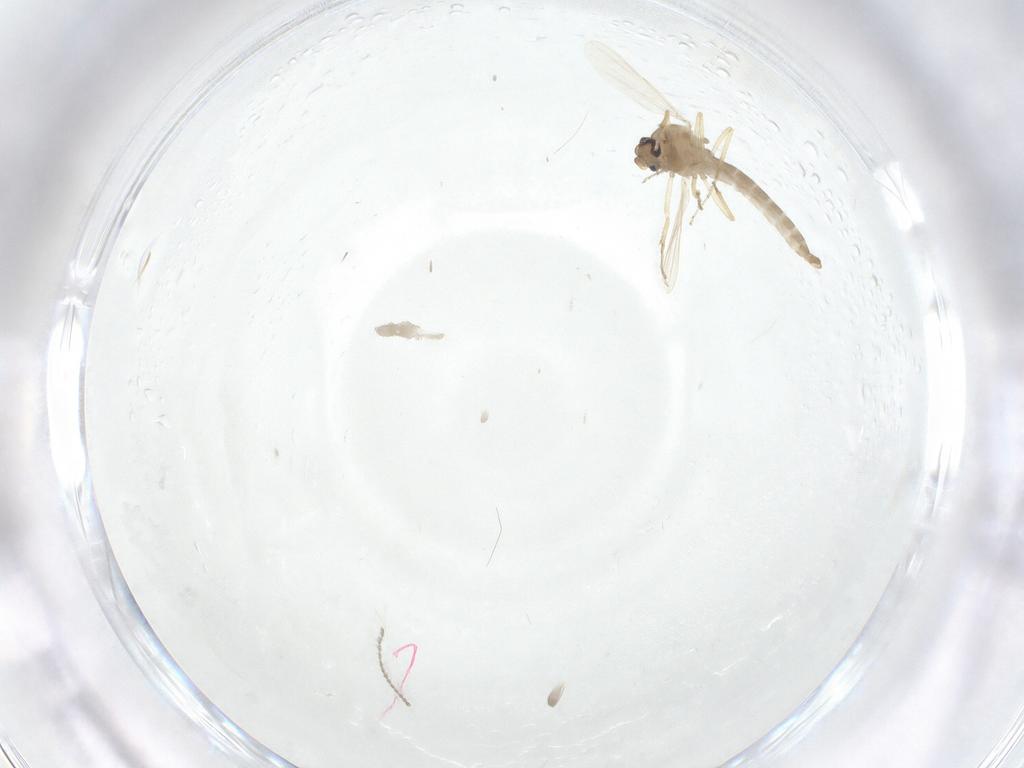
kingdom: Animalia
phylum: Arthropoda
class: Insecta
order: Diptera
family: Ceratopogonidae
